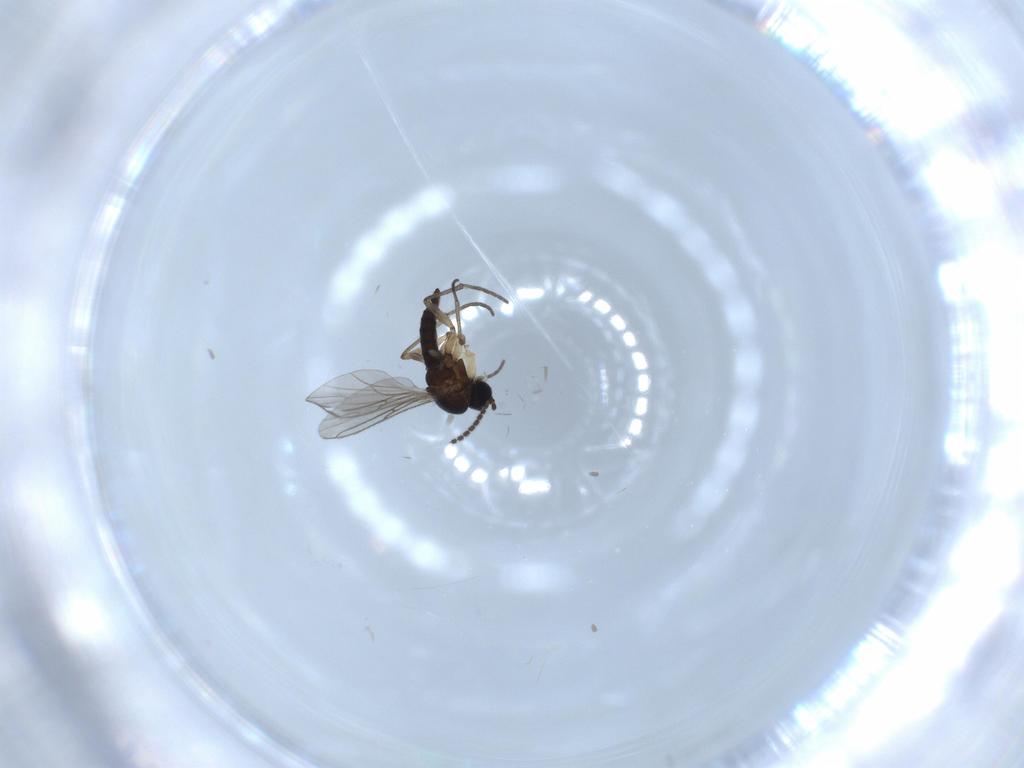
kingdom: Animalia
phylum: Arthropoda
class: Insecta
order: Diptera
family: Sciaridae
